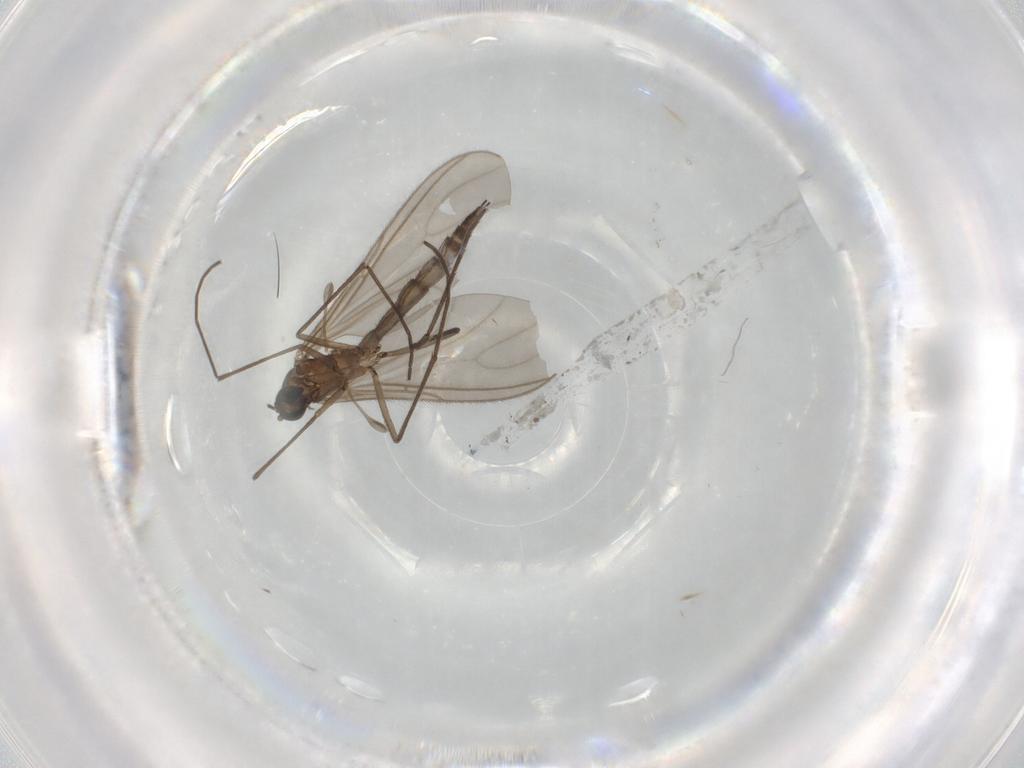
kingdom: Animalia
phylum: Arthropoda
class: Insecta
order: Diptera
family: Sciaridae
